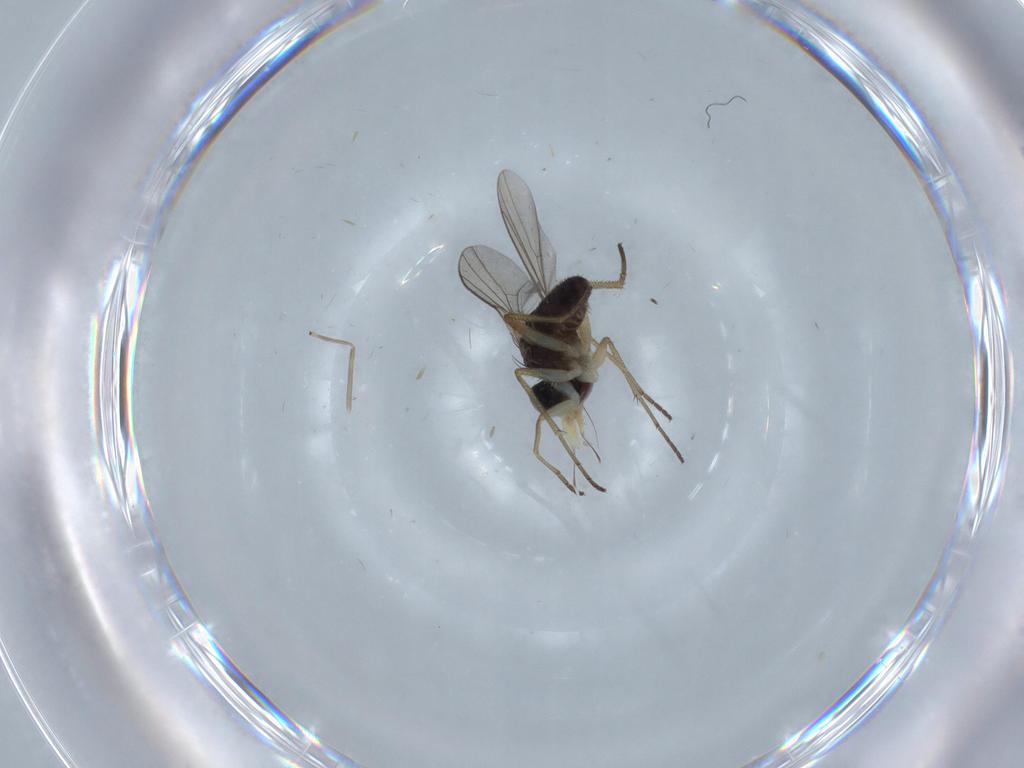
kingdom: Animalia
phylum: Arthropoda
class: Insecta
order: Diptera
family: Dolichopodidae
